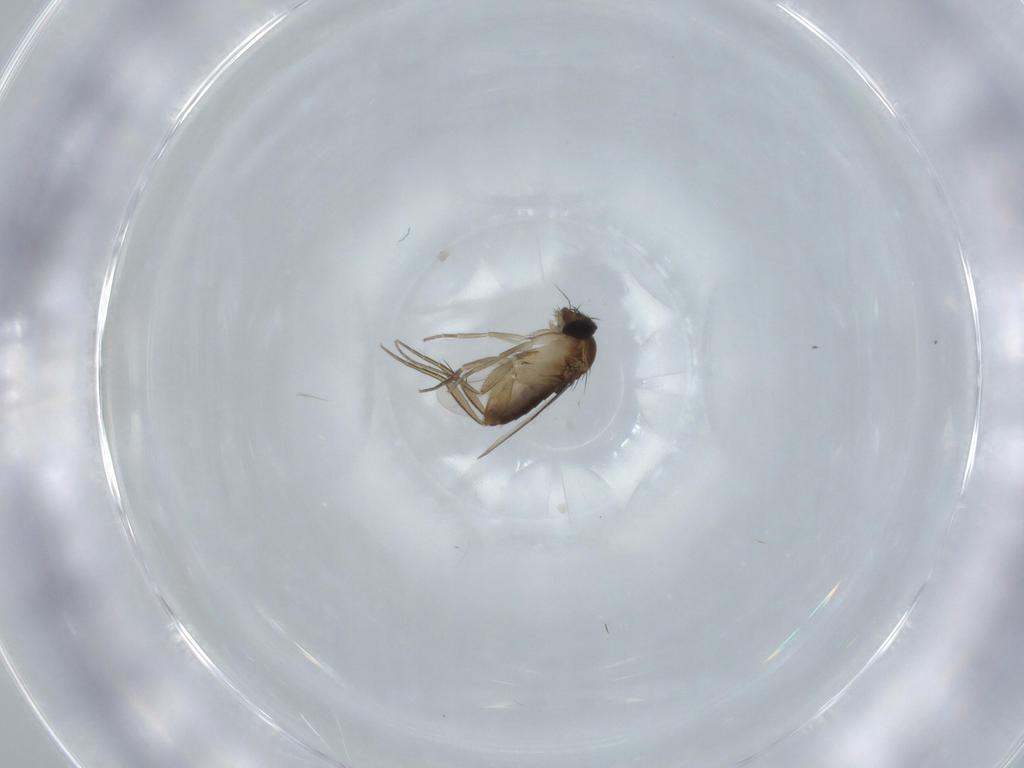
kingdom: Animalia
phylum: Arthropoda
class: Insecta
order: Diptera
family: Phoridae
